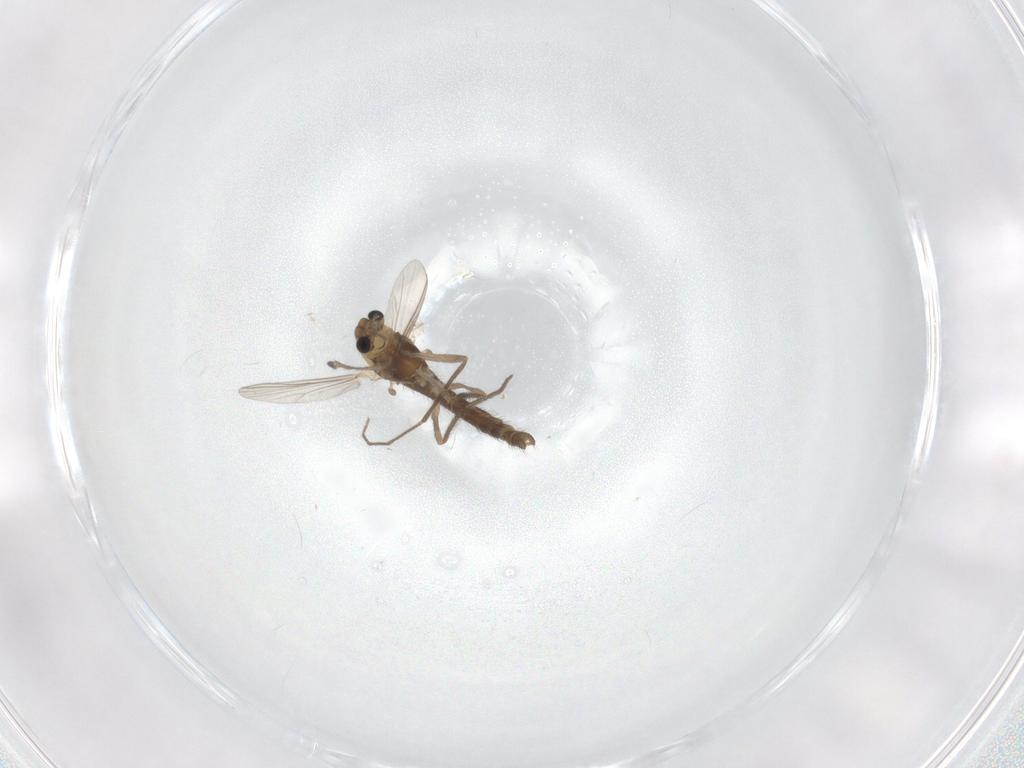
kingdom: Animalia
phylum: Arthropoda
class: Insecta
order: Diptera
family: Chironomidae
